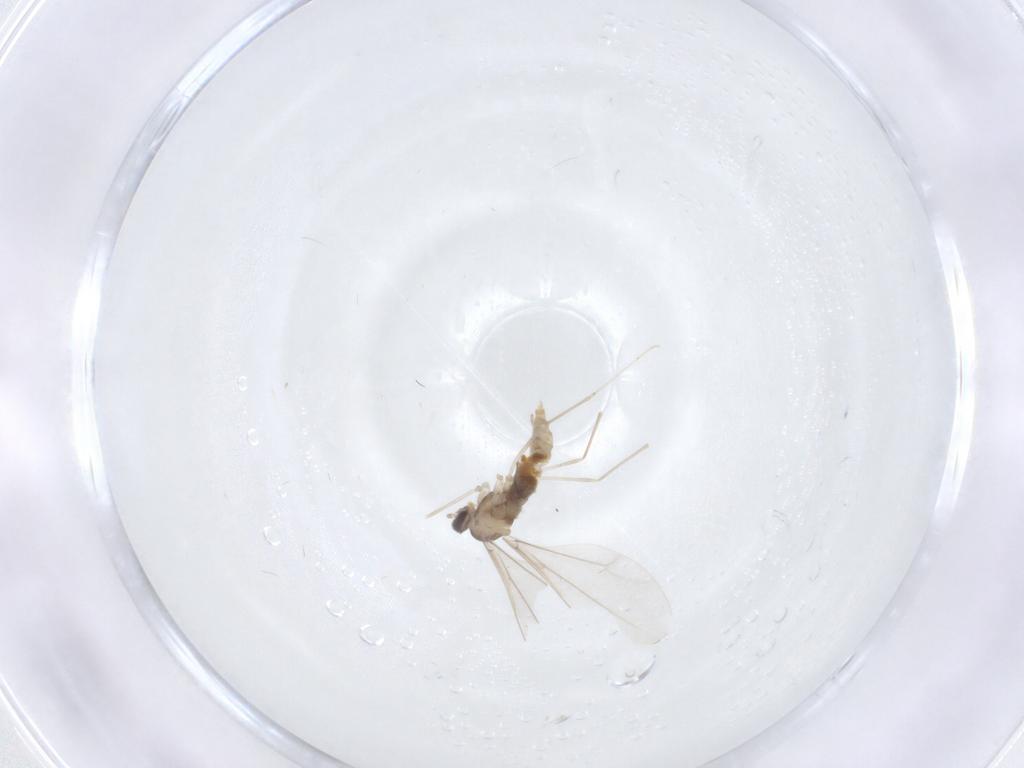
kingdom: Animalia
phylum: Arthropoda
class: Insecta
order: Diptera
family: Cecidomyiidae
